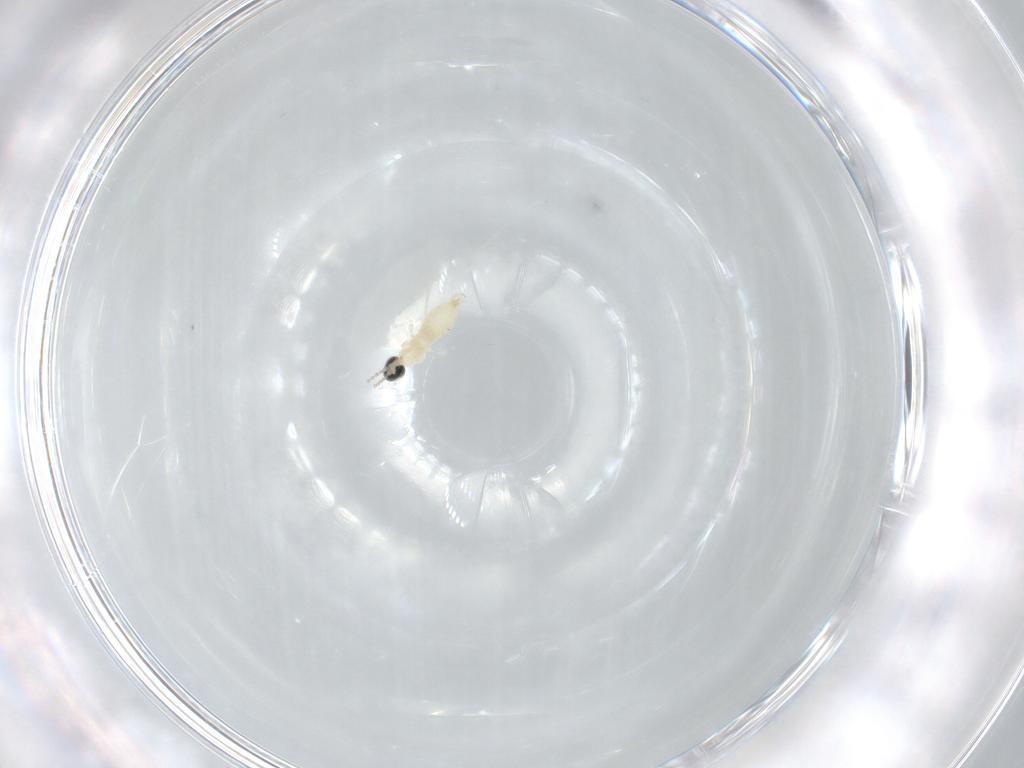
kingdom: Animalia
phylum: Arthropoda
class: Insecta
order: Diptera
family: Cecidomyiidae
